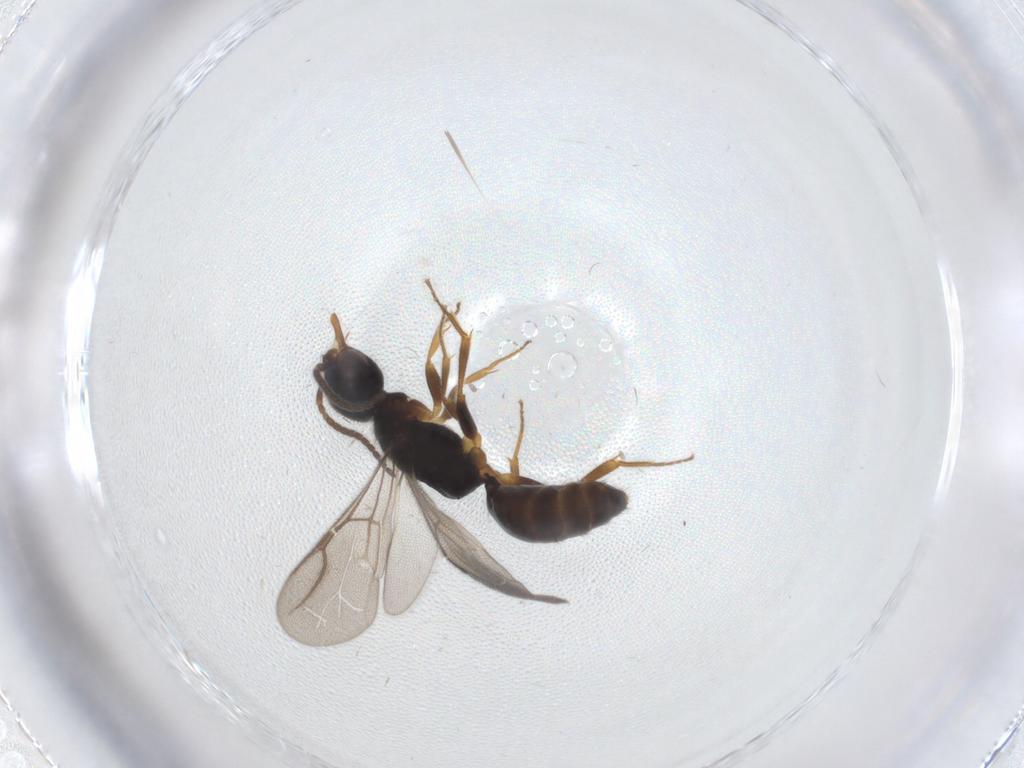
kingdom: Animalia
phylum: Arthropoda
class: Insecta
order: Hymenoptera
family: Bethylidae
